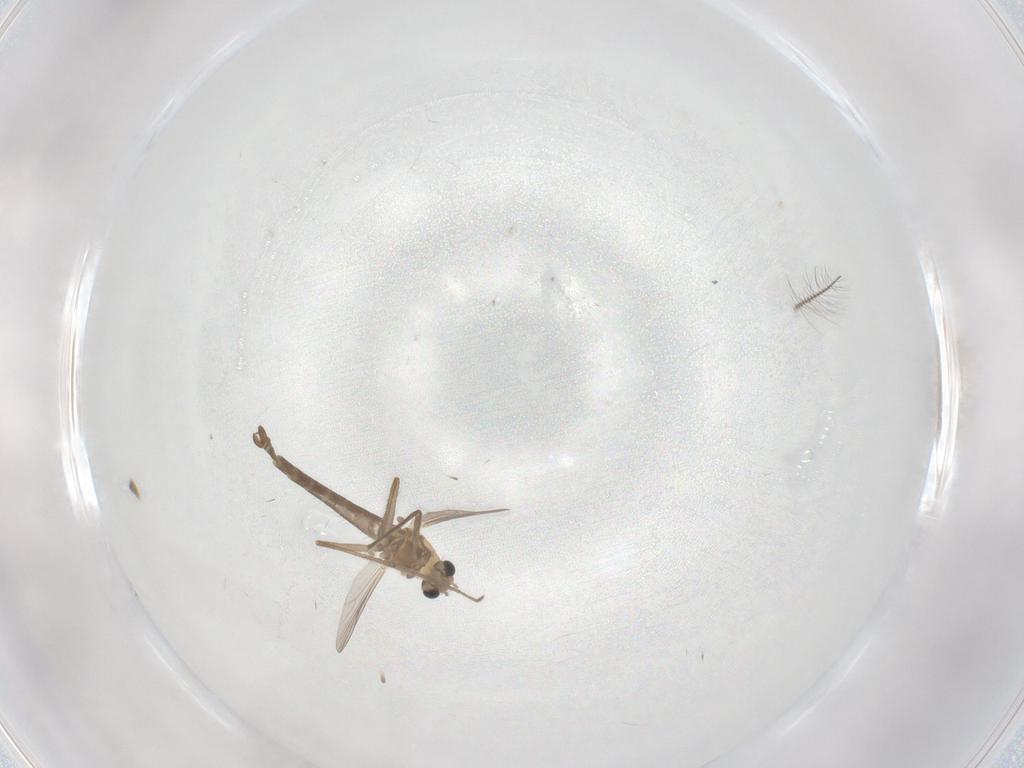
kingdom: Animalia
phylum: Arthropoda
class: Insecta
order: Diptera
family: Chironomidae
